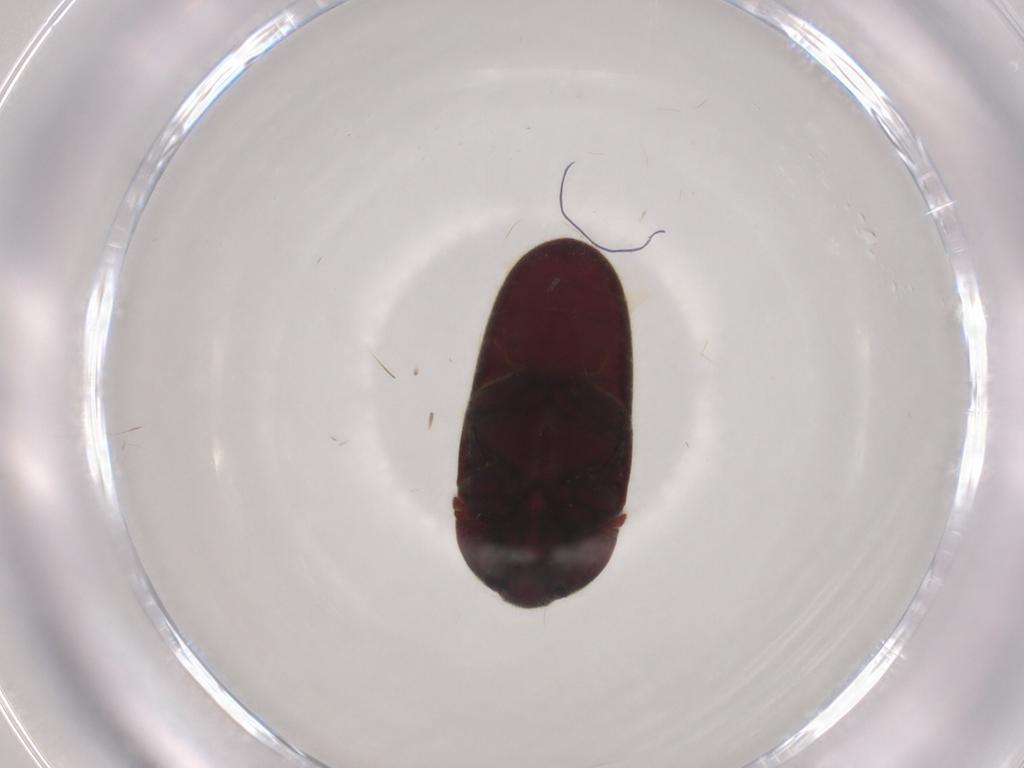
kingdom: Animalia
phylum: Arthropoda
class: Insecta
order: Coleoptera
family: Throscidae
